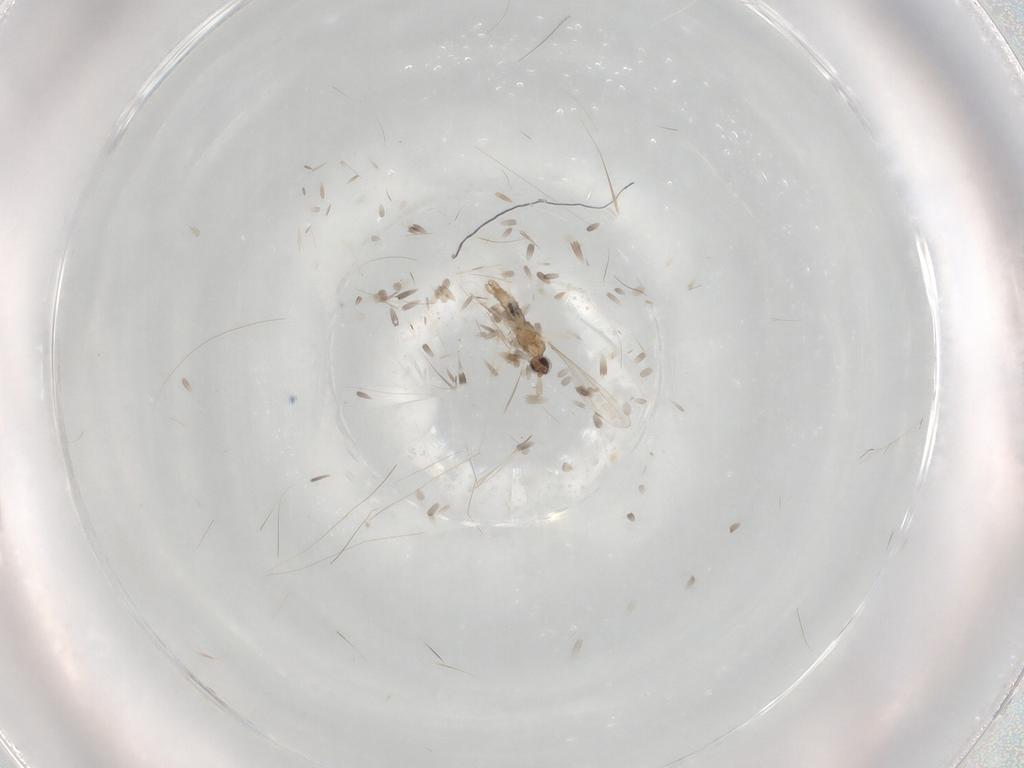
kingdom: Animalia
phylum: Arthropoda
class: Insecta
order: Diptera
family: Cecidomyiidae
